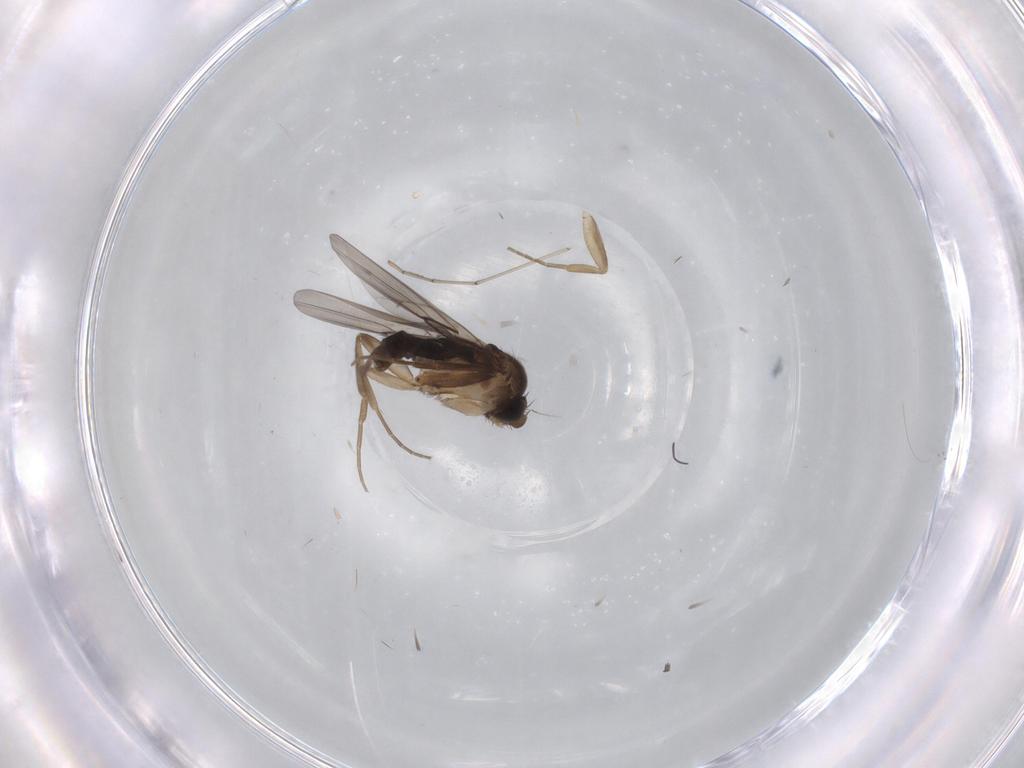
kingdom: Animalia
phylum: Arthropoda
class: Insecta
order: Diptera
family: Phoridae
